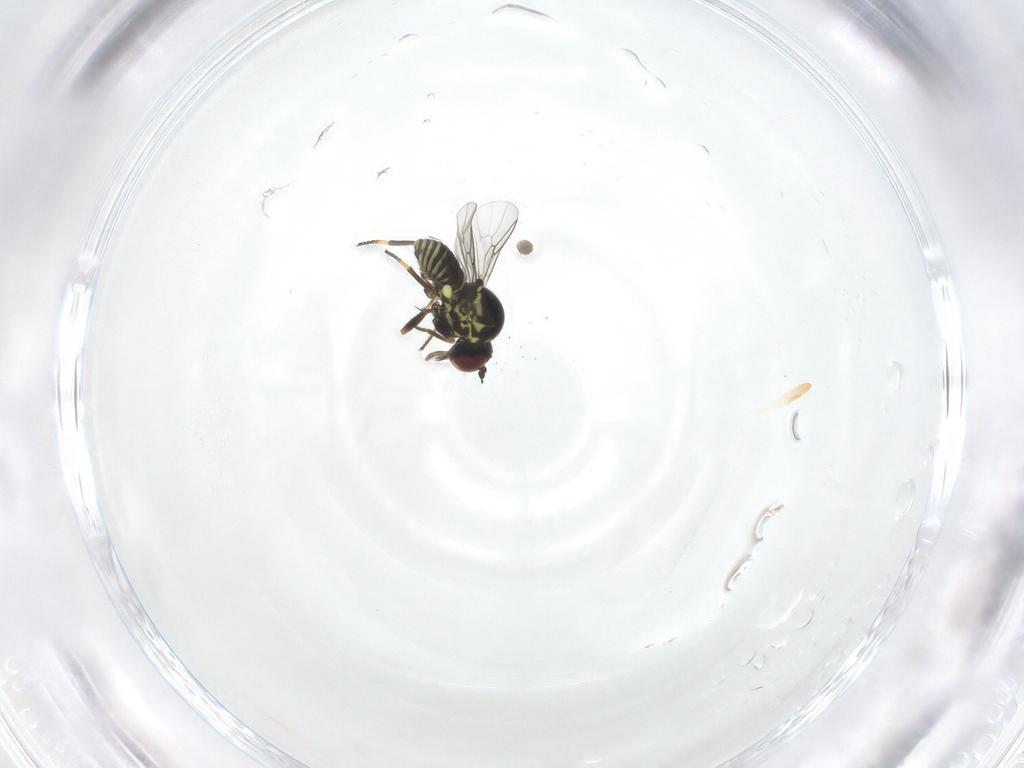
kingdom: Animalia
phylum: Arthropoda
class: Insecta
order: Diptera
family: Mythicomyiidae
